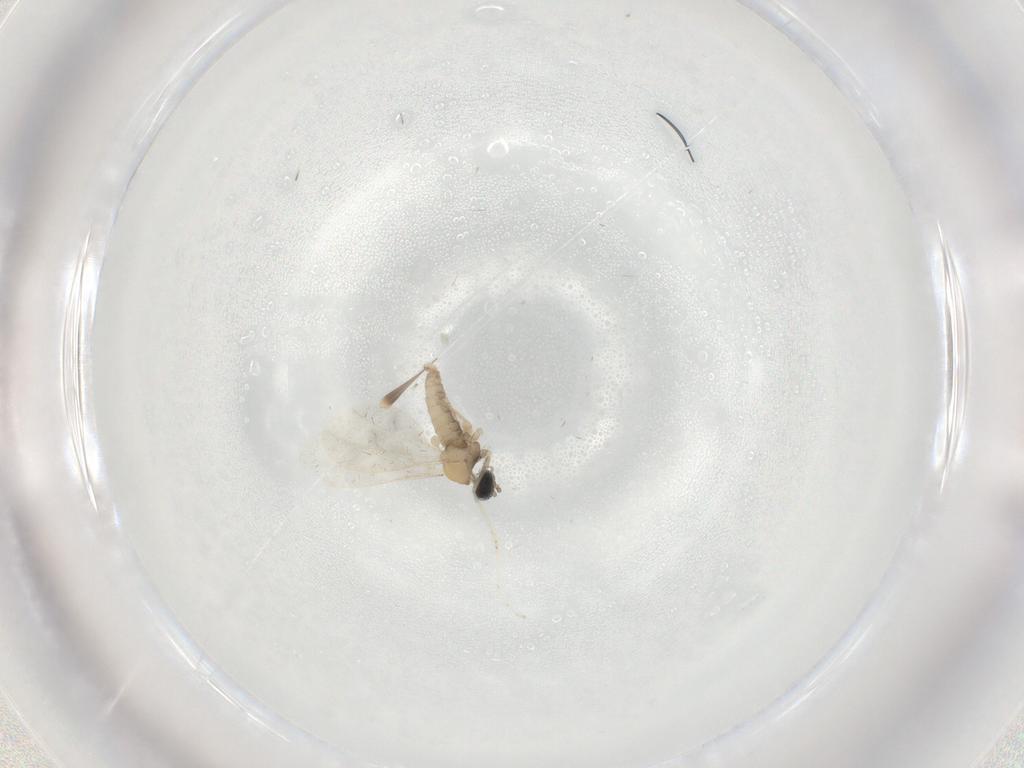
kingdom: Animalia
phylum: Arthropoda
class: Insecta
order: Diptera
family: Cecidomyiidae
